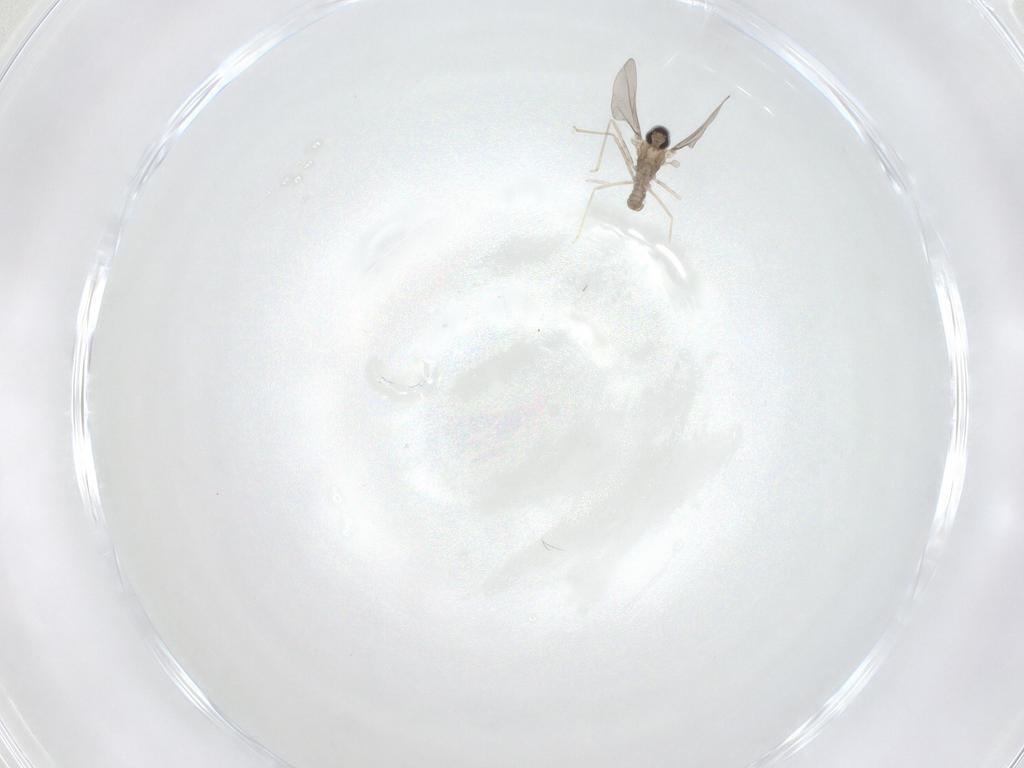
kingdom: Animalia
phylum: Arthropoda
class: Insecta
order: Diptera
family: Cecidomyiidae
